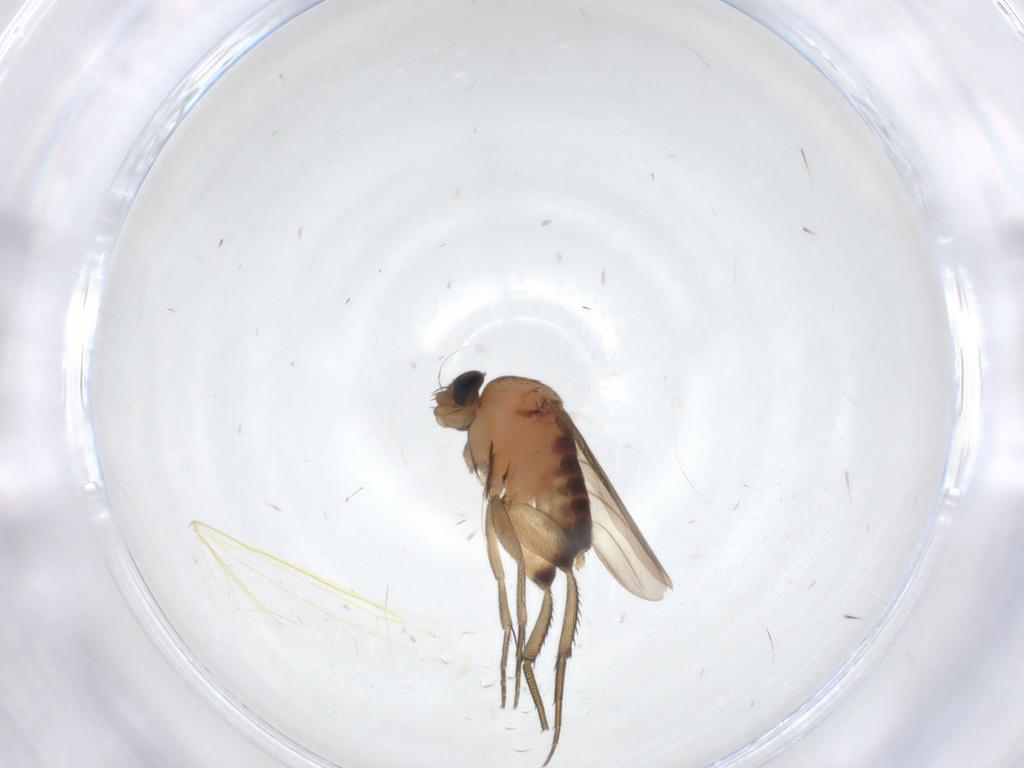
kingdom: Animalia
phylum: Arthropoda
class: Insecta
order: Diptera
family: Phoridae
